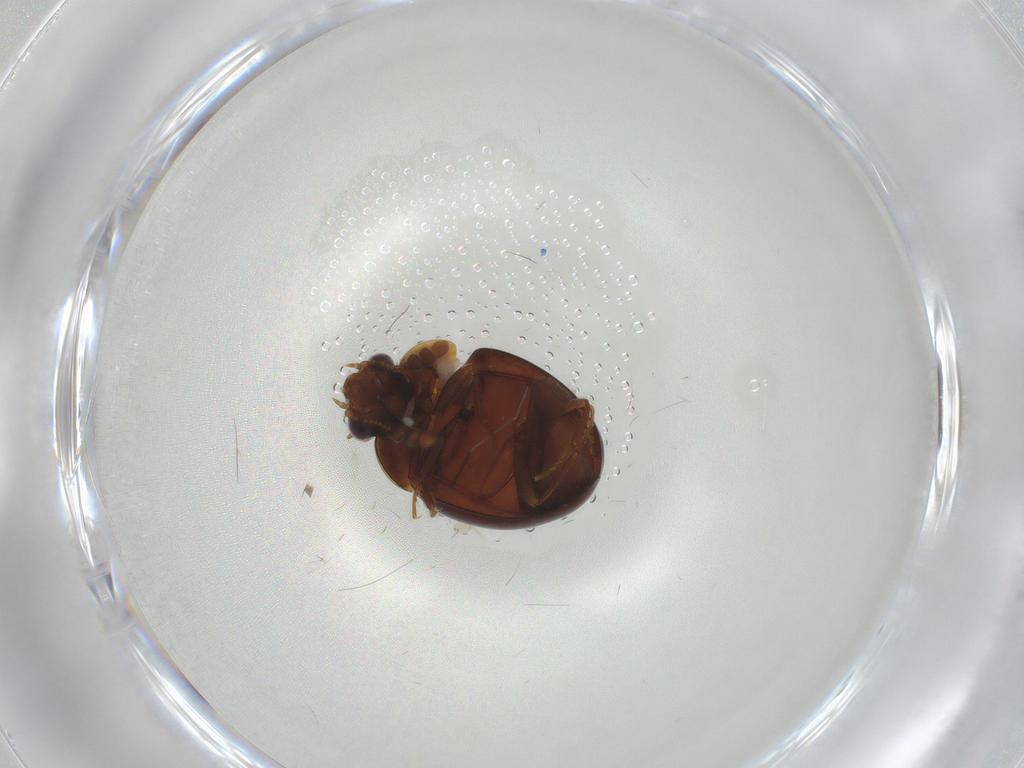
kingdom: Animalia
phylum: Arthropoda
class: Insecta
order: Coleoptera
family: Leiodidae
